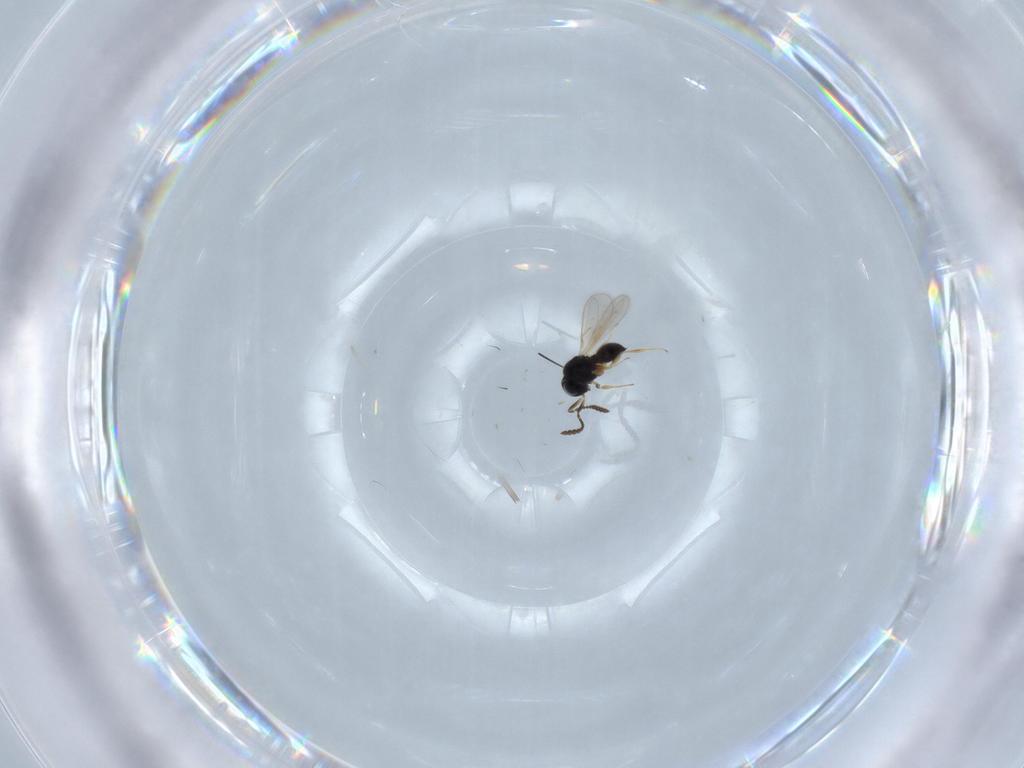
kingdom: Animalia
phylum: Arthropoda
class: Insecta
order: Hymenoptera
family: Scelionidae
